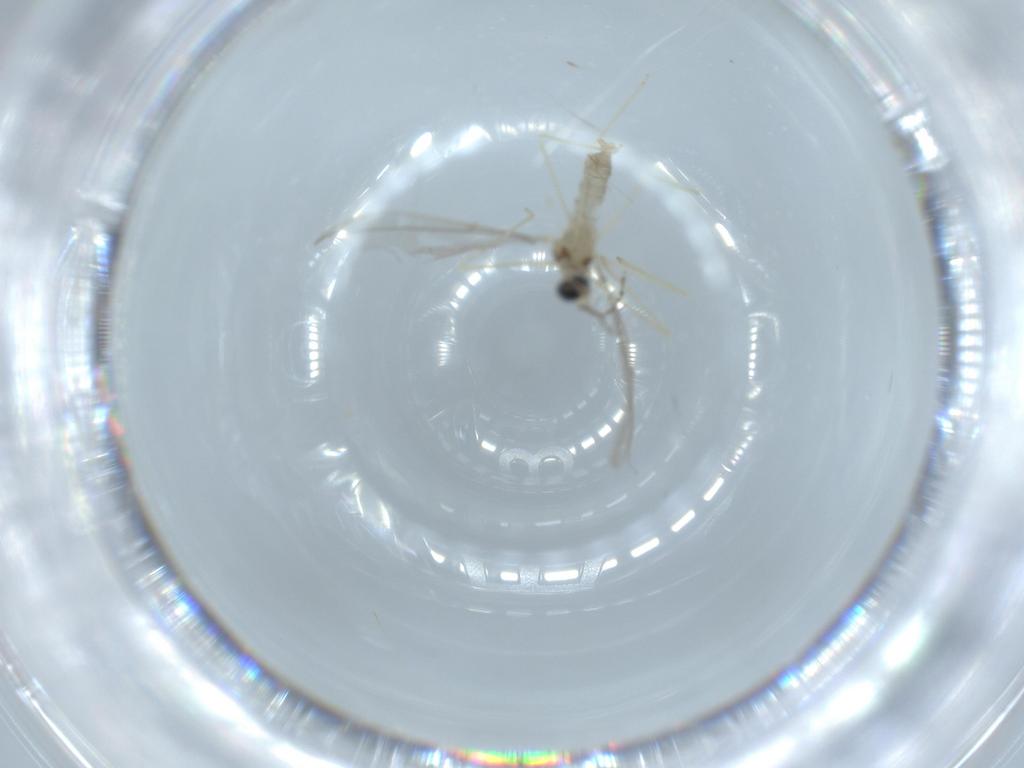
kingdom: Animalia
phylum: Arthropoda
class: Insecta
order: Diptera
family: Cecidomyiidae
